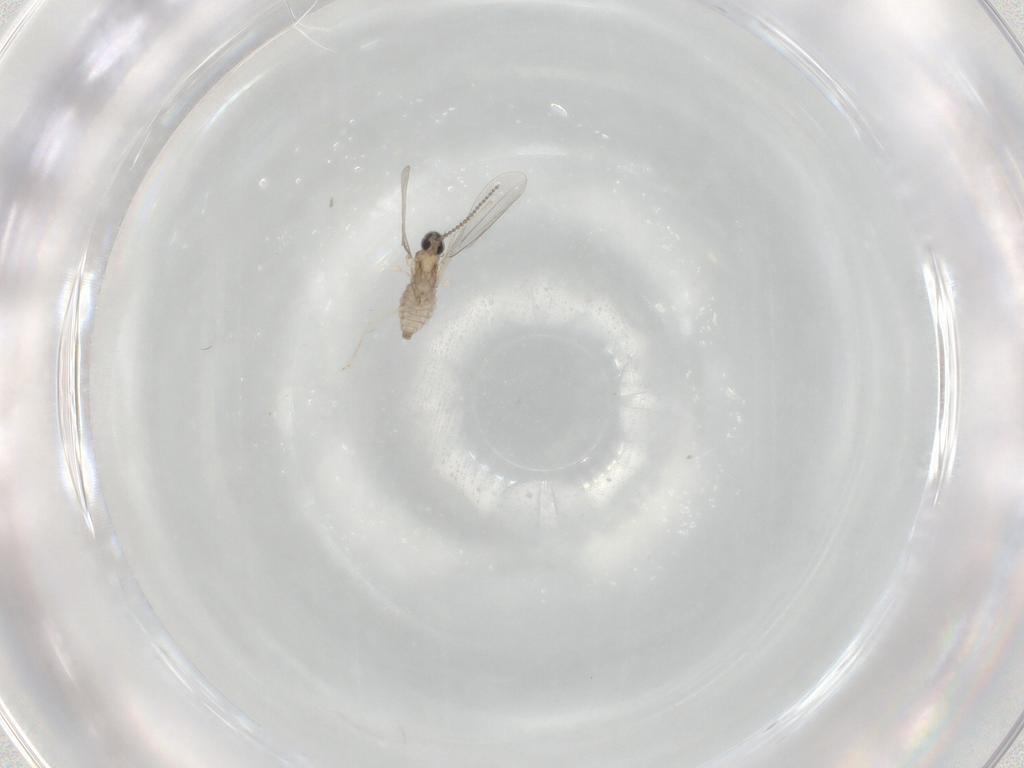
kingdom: Animalia
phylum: Arthropoda
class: Insecta
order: Diptera
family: Cecidomyiidae
